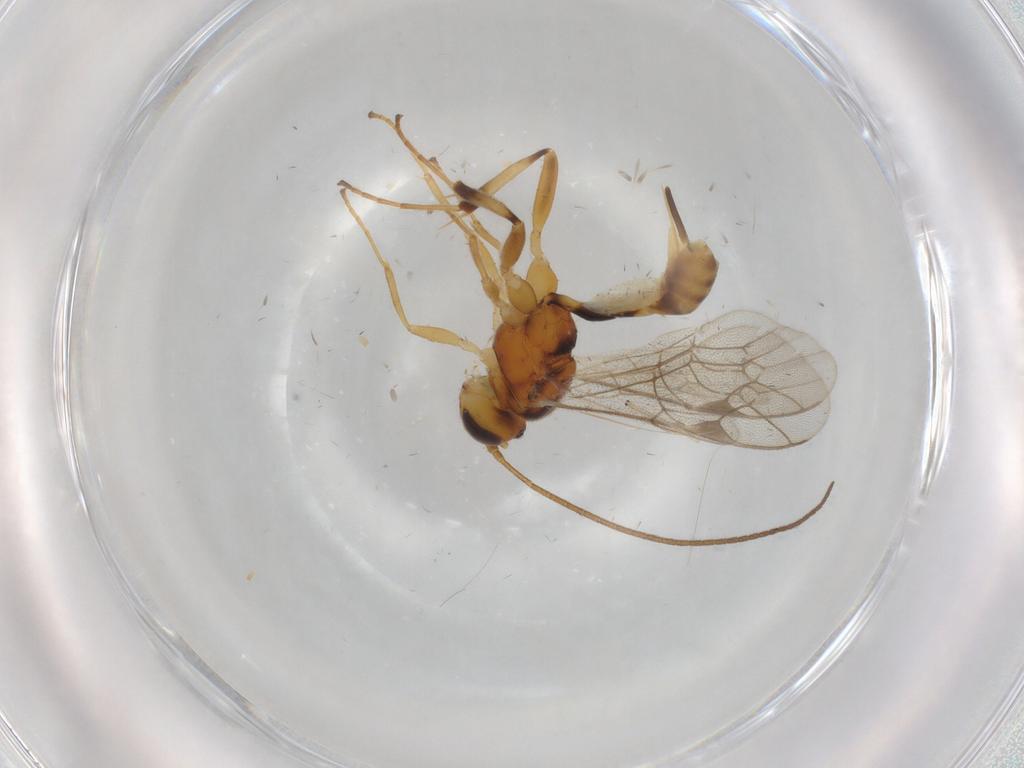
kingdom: Animalia
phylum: Arthropoda
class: Insecta
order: Hymenoptera
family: Ichneumonidae
